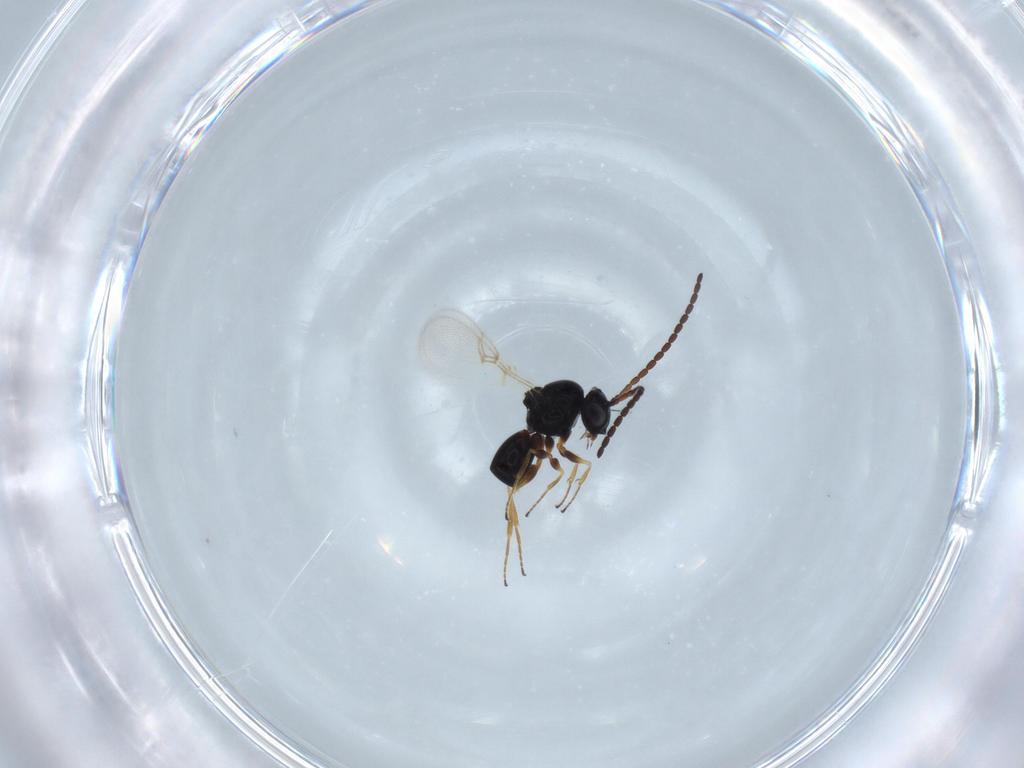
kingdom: Animalia
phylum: Arthropoda
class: Insecta
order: Hymenoptera
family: Figitidae
